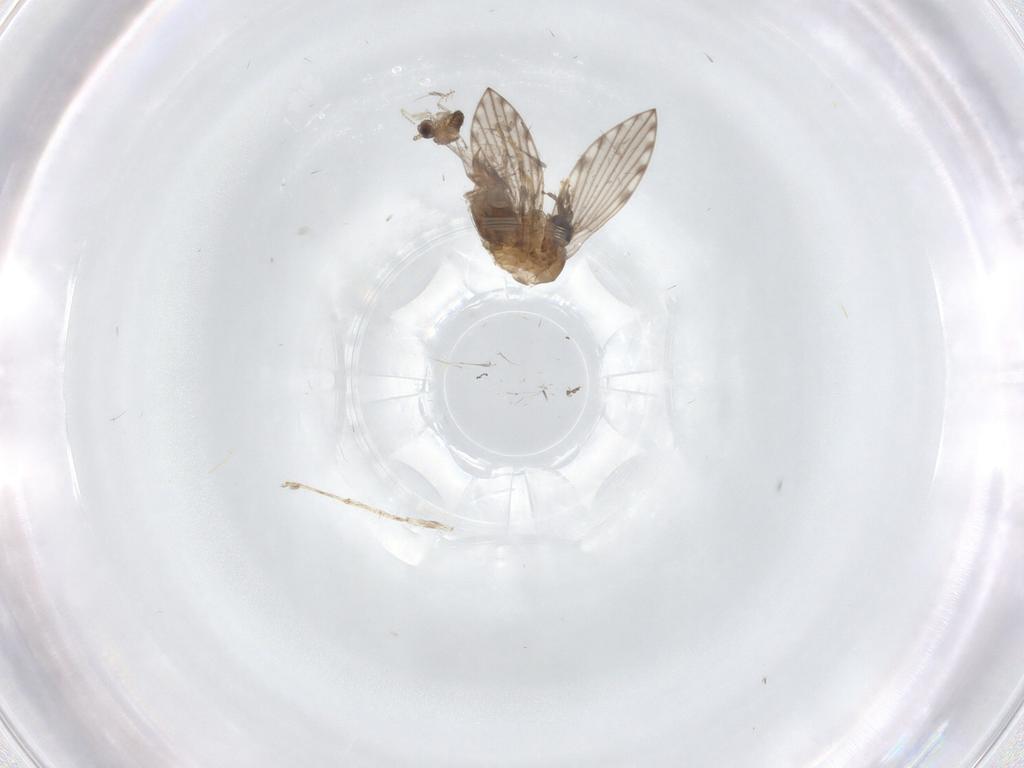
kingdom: Animalia
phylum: Arthropoda
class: Insecta
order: Diptera
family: Psychodidae
